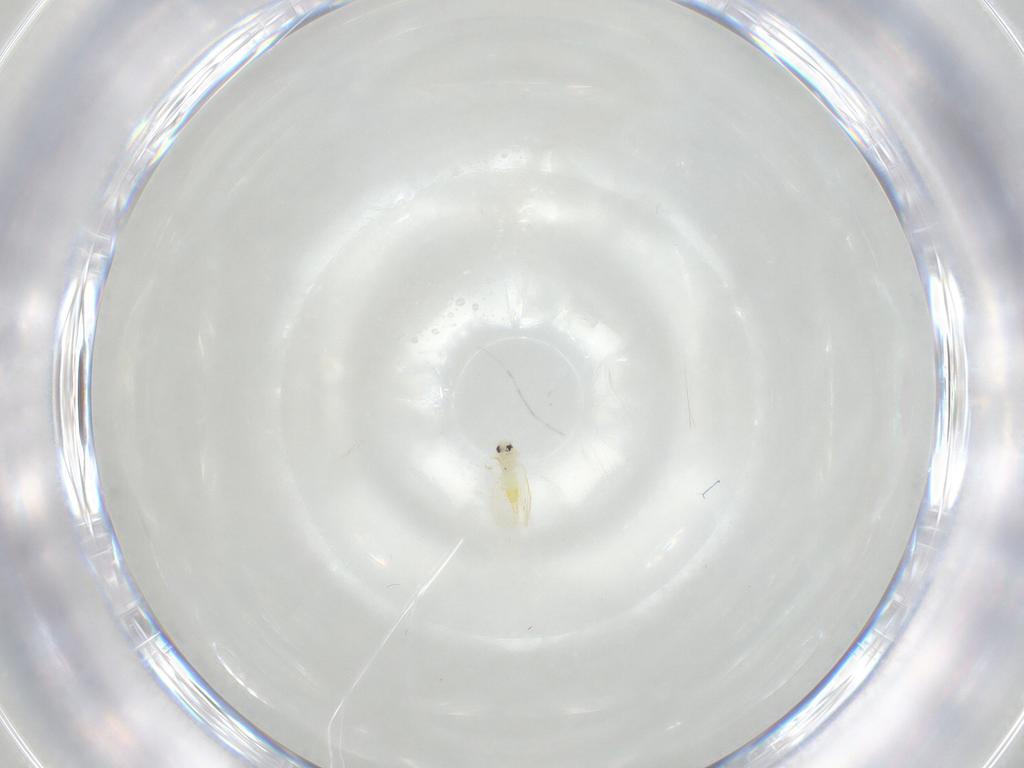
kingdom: Animalia
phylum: Arthropoda
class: Insecta
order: Hemiptera
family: Aleyrodidae
